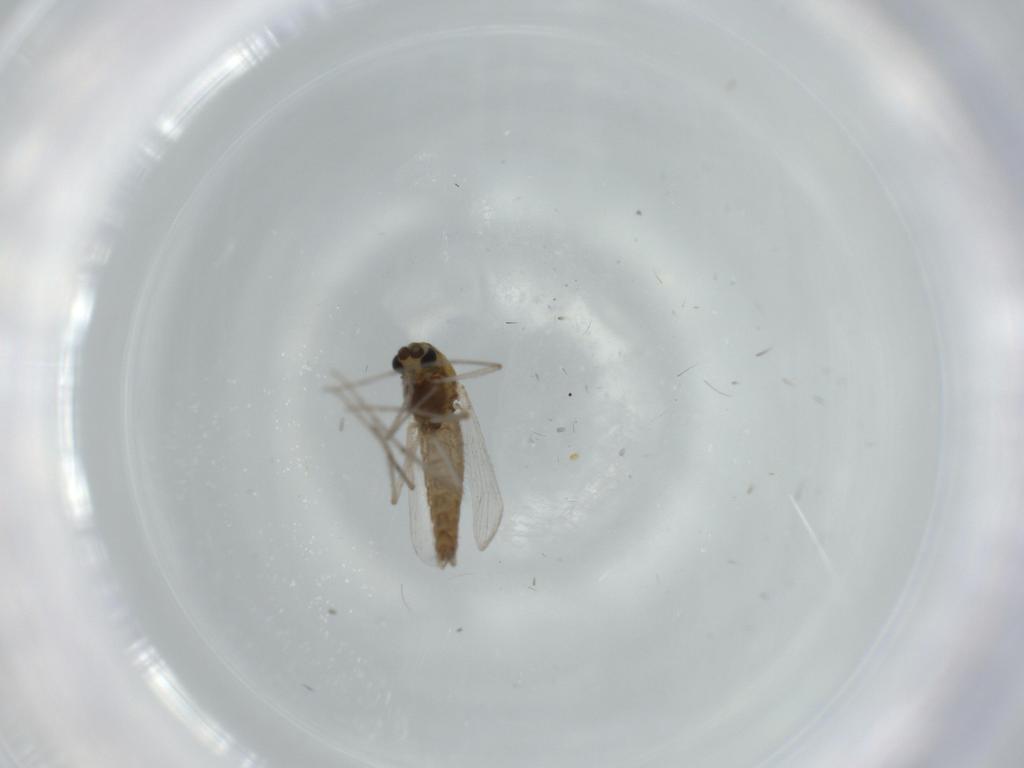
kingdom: Animalia
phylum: Arthropoda
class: Insecta
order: Diptera
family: Chironomidae
